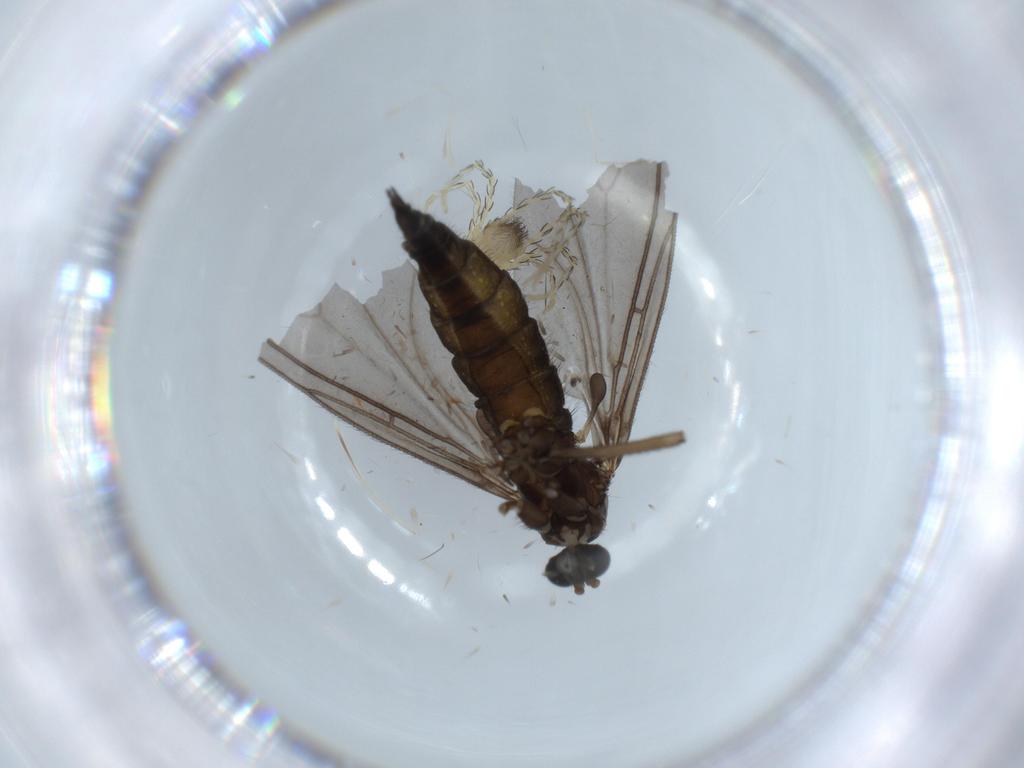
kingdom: Animalia
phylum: Arthropoda
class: Insecta
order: Diptera
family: Sciaridae
